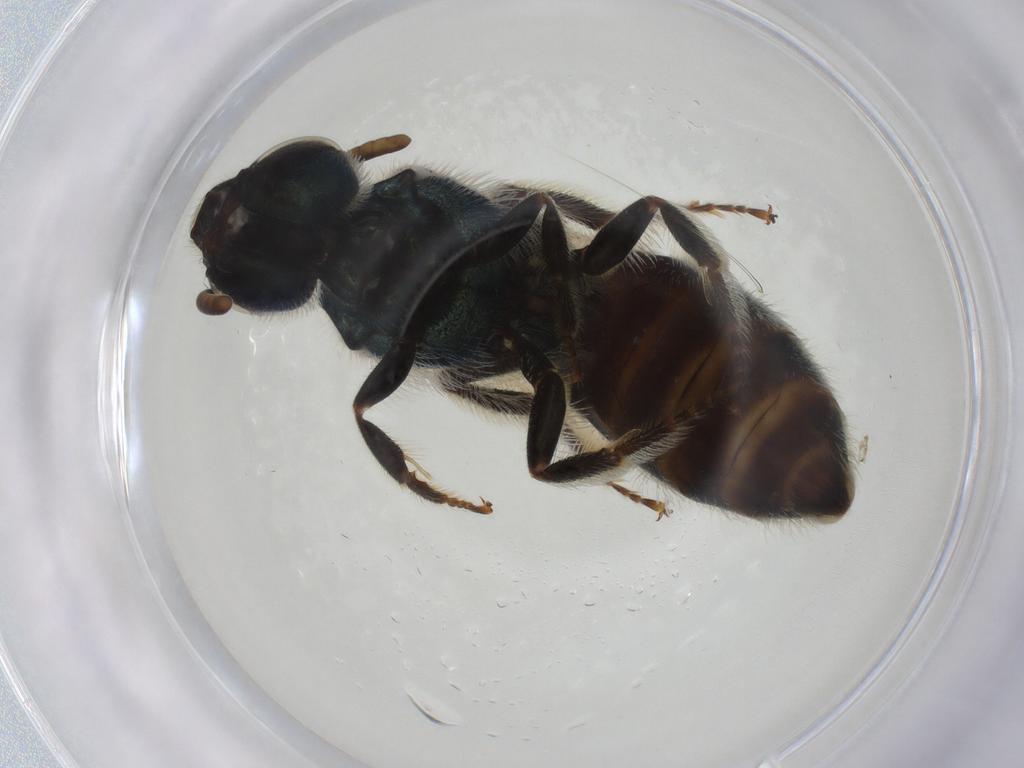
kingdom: Animalia
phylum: Arthropoda
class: Insecta
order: Hymenoptera
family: Halictidae
